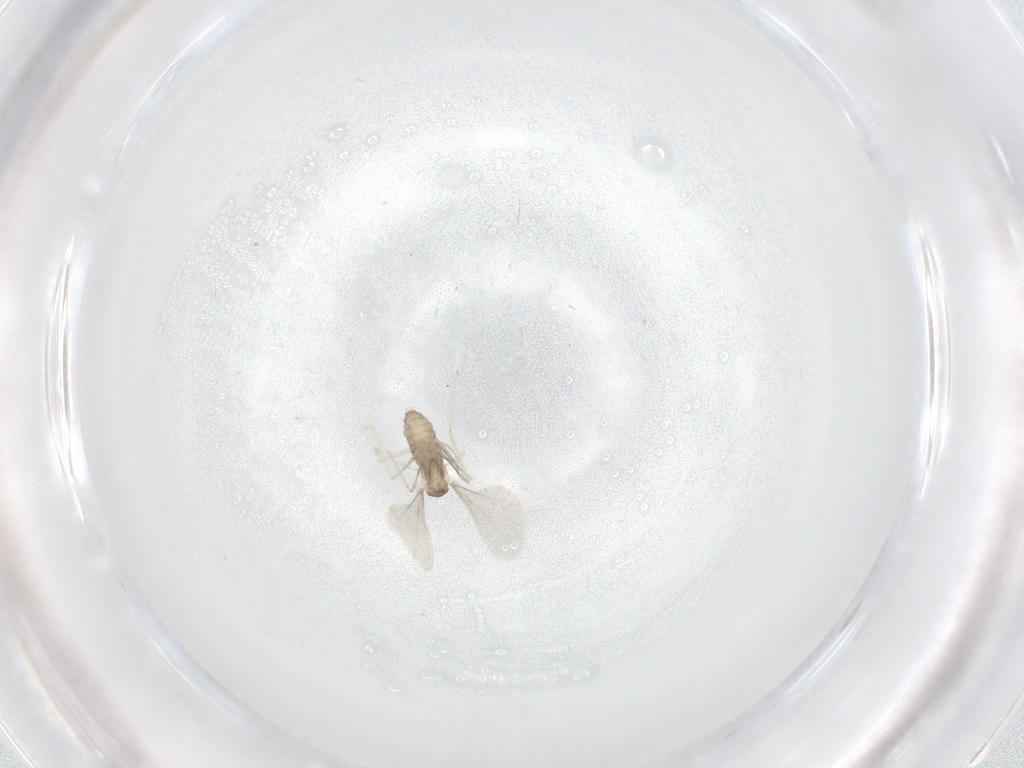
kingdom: Animalia
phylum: Arthropoda
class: Insecta
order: Diptera
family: Cecidomyiidae
